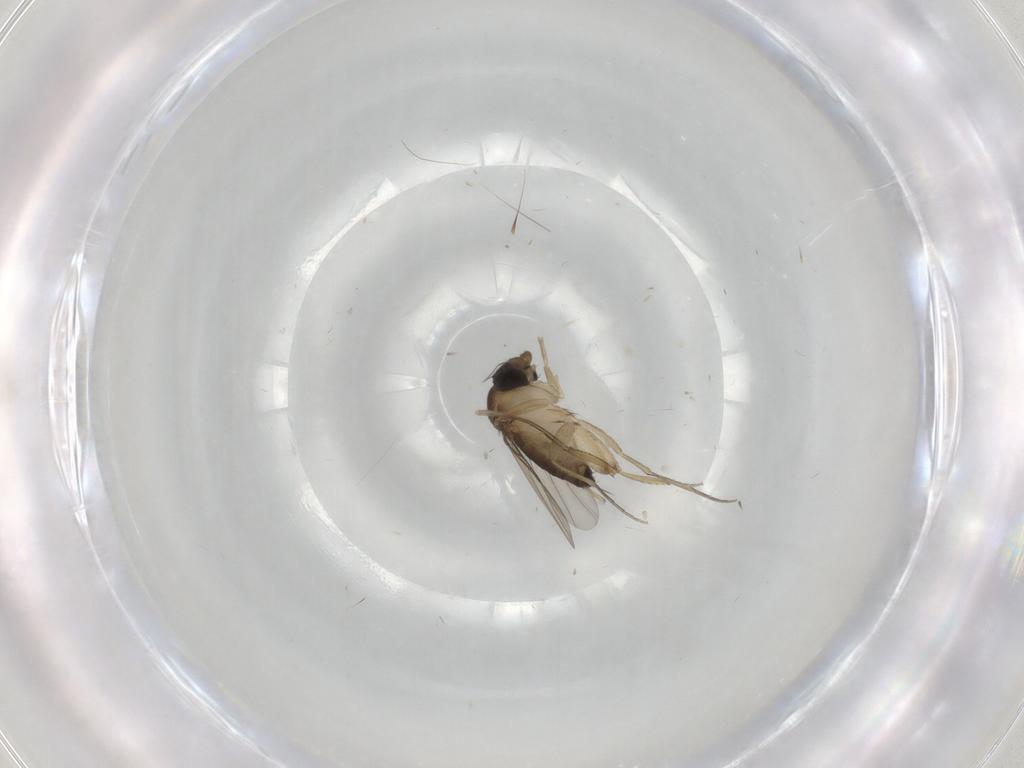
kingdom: Animalia
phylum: Arthropoda
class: Insecta
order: Diptera
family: Phoridae
